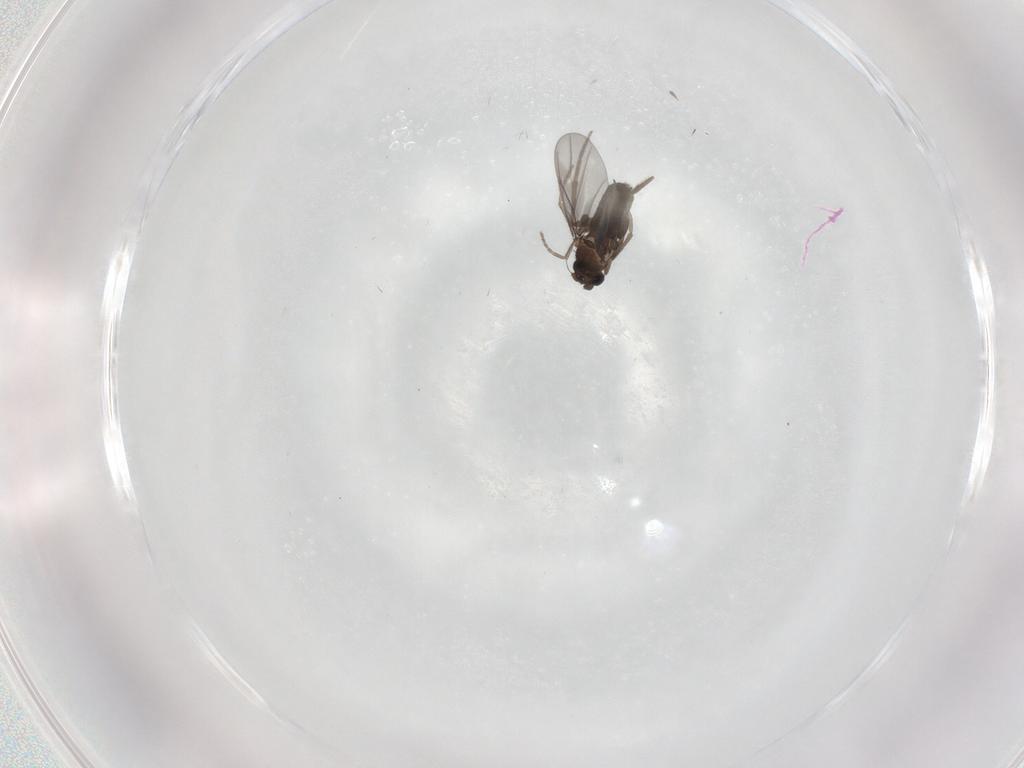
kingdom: Animalia
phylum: Arthropoda
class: Insecta
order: Diptera
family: Sciaridae
